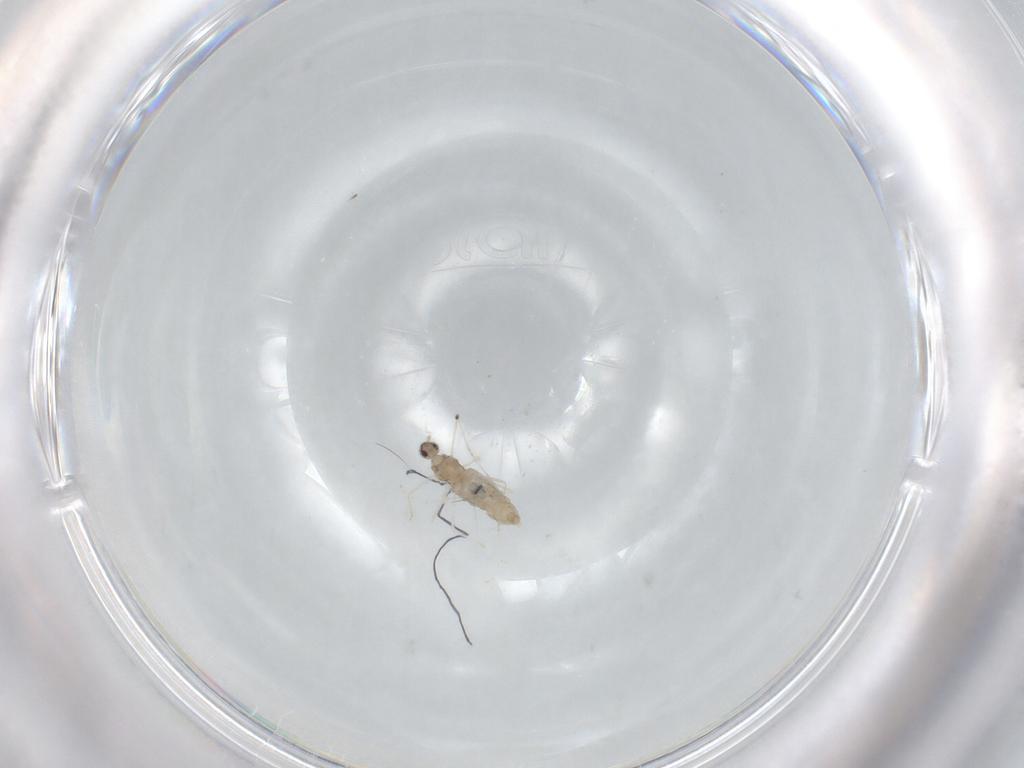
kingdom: Animalia
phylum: Arthropoda
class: Insecta
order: Diptera
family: Cecidomyiidae
